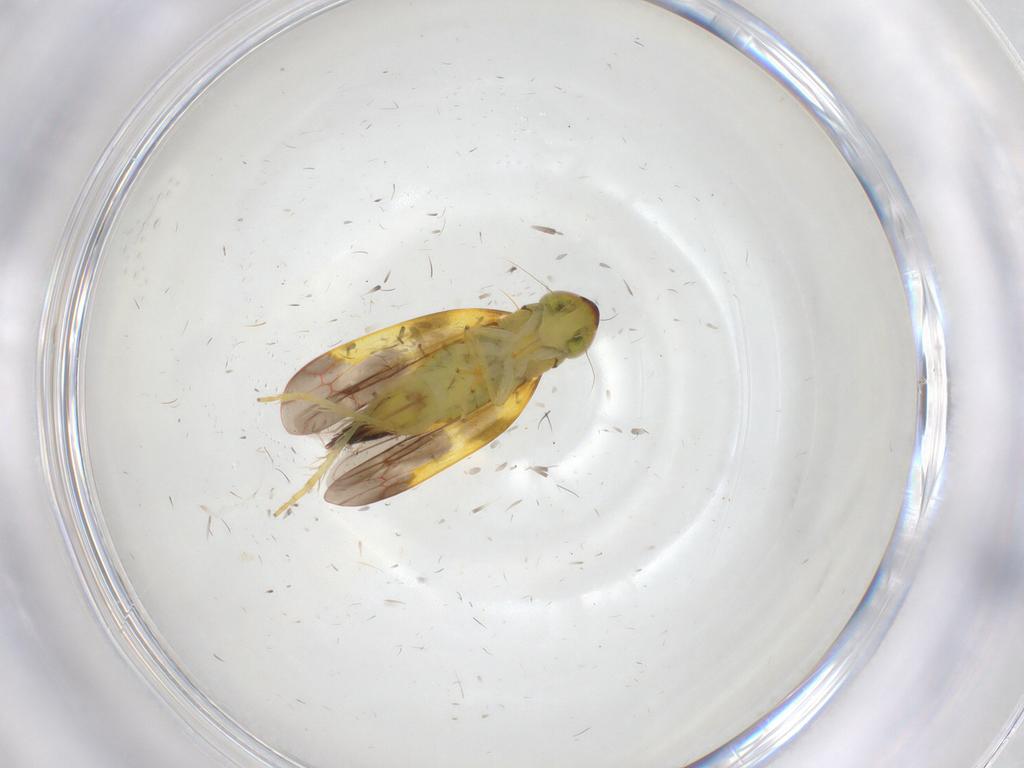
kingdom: Animalia
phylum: Arthropoda
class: Insecta
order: Hemiptera
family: Cicadellidae
